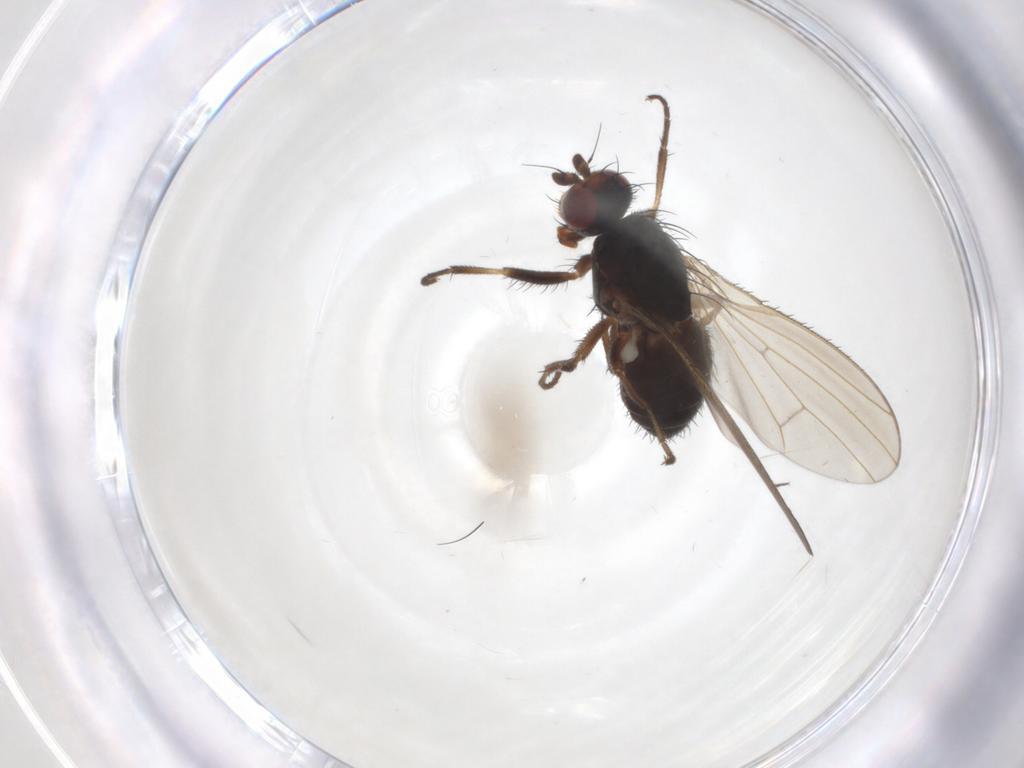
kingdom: Animalia
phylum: Arthropoda
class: Insecta
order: Diptera
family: Heleomyzidae
